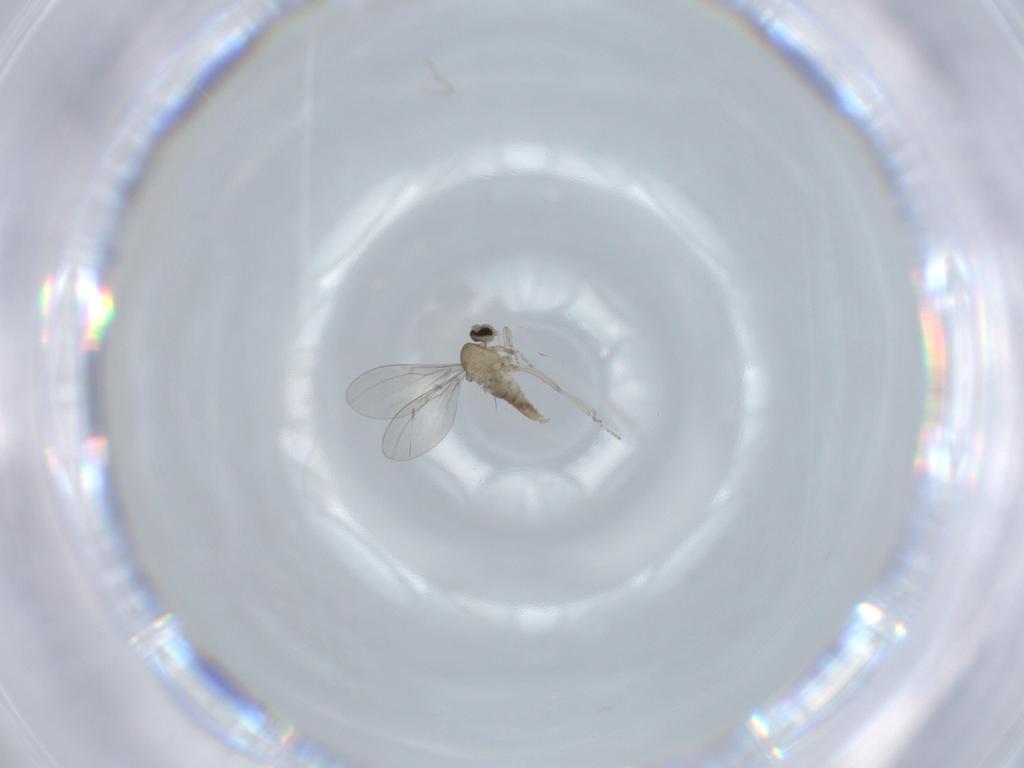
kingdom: Animalia
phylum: Arthropoda
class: Insecta
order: Diptera
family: Cecidomyiidae
